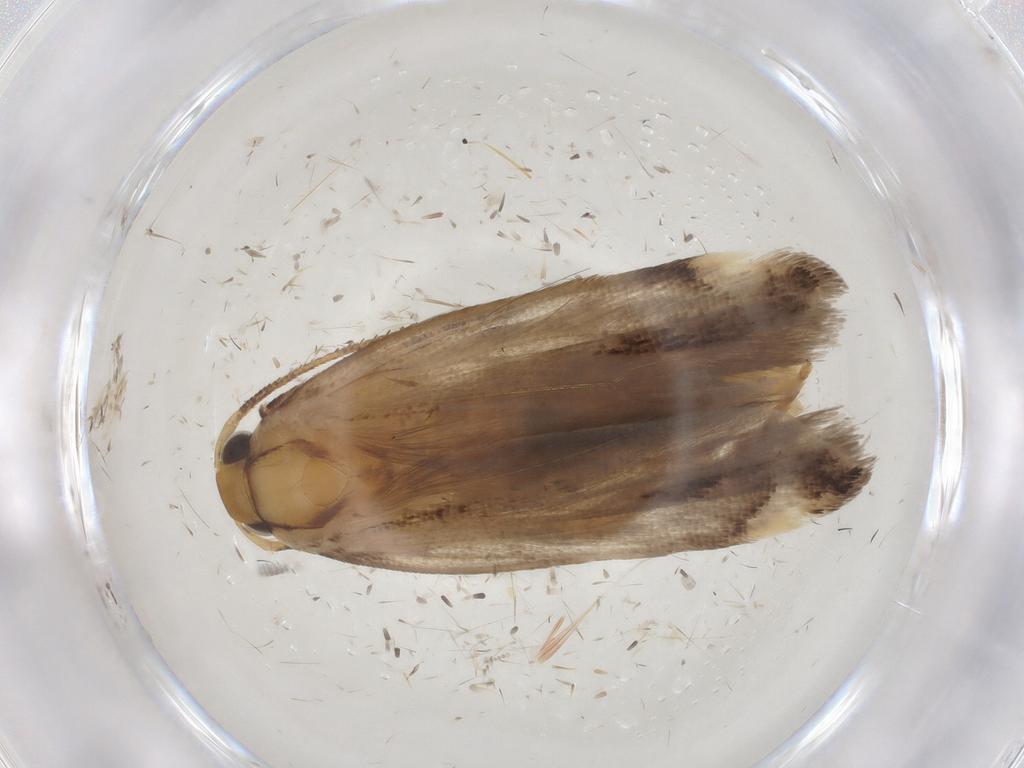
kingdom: Animalia
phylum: Arthropoda
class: Insecta
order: Lepidoptera
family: Gelechiidae
